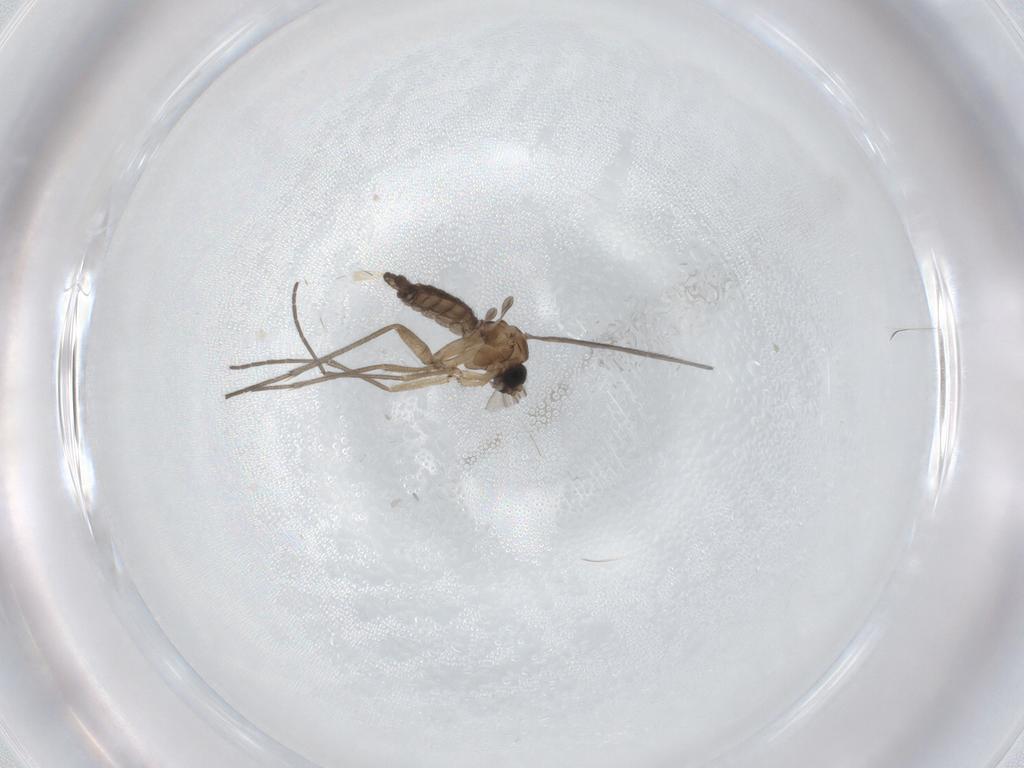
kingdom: Animalia
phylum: Arthropoda
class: Insecta
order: Diptera
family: Sciaridae
